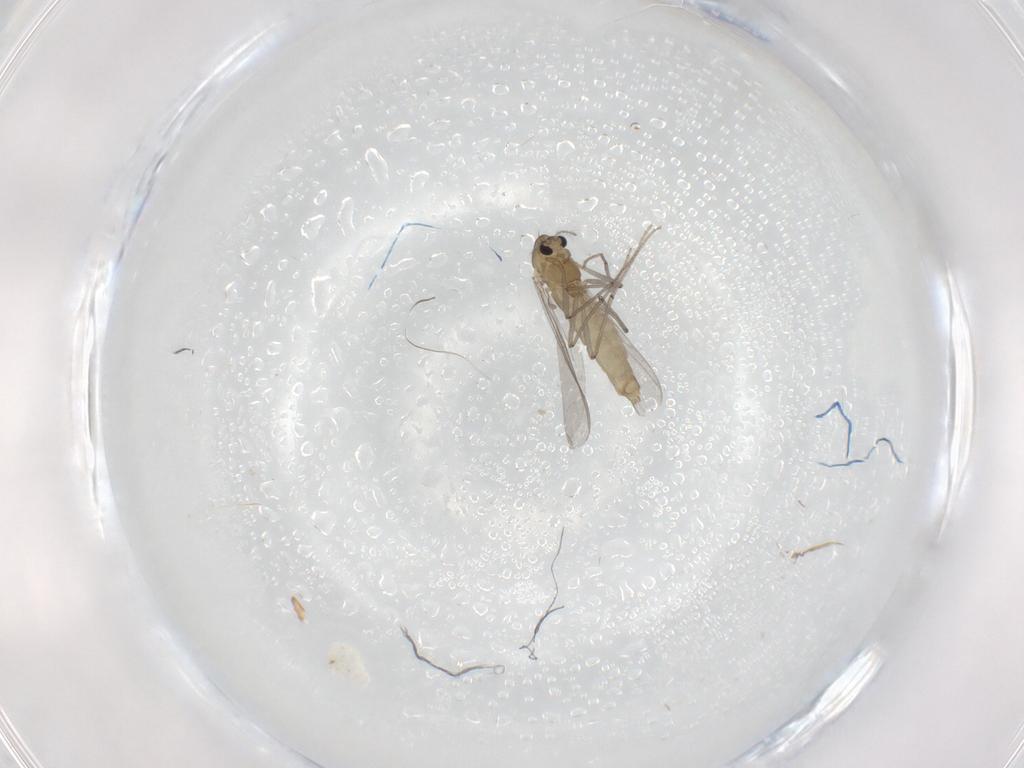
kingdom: Animalia
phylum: Arthropoda
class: Insecta
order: Diptera
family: Chironomidae
